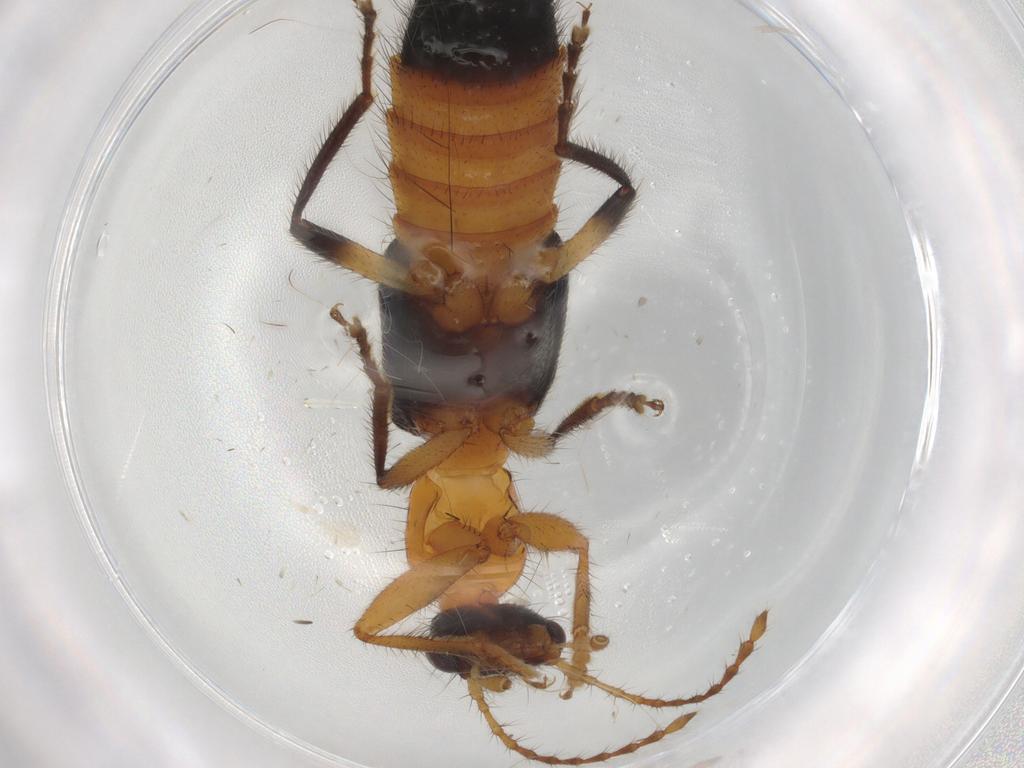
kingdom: Animalia
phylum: Arthropoda
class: Insecta
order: Coleoptera
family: Staphylinidae
